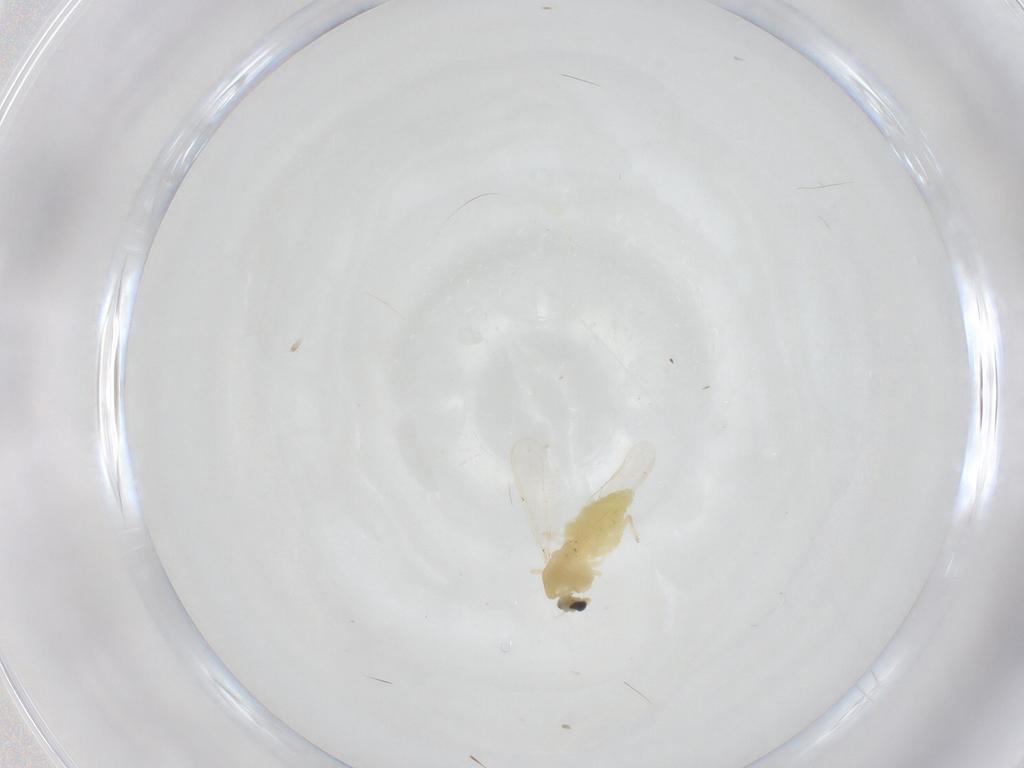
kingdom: Animalia
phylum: Arthropoda
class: Insecta
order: Diptera
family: Chironomidae
